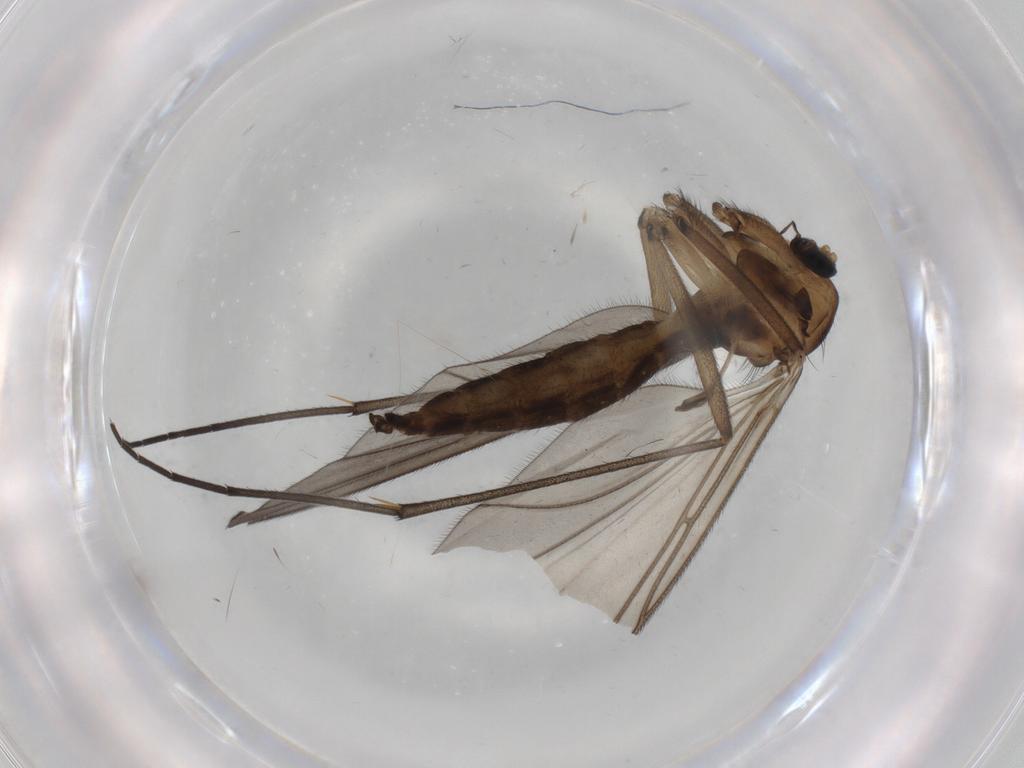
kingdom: Animalia
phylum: Arthropoda
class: Insecta
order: Diptera
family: Sciaridae
